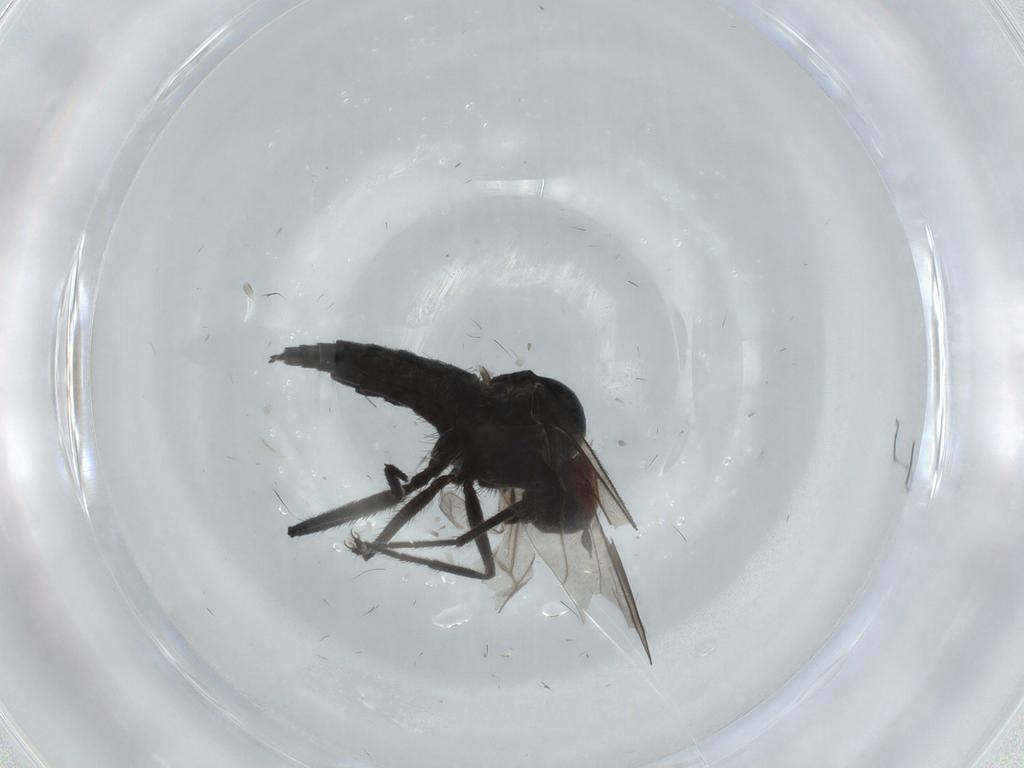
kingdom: Animalia
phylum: Arthropoda
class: Insecta
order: Diptera
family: Hybotidae
